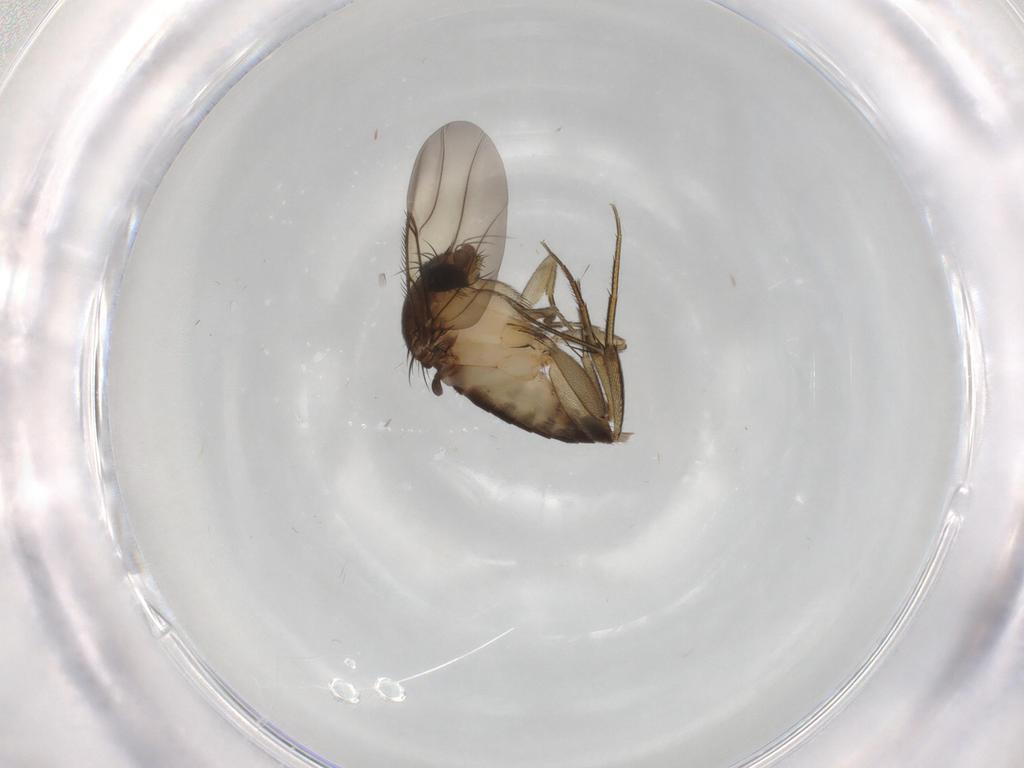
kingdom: Animalia
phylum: Arthropoda
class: Insecta
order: Diptera
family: Phoridae
